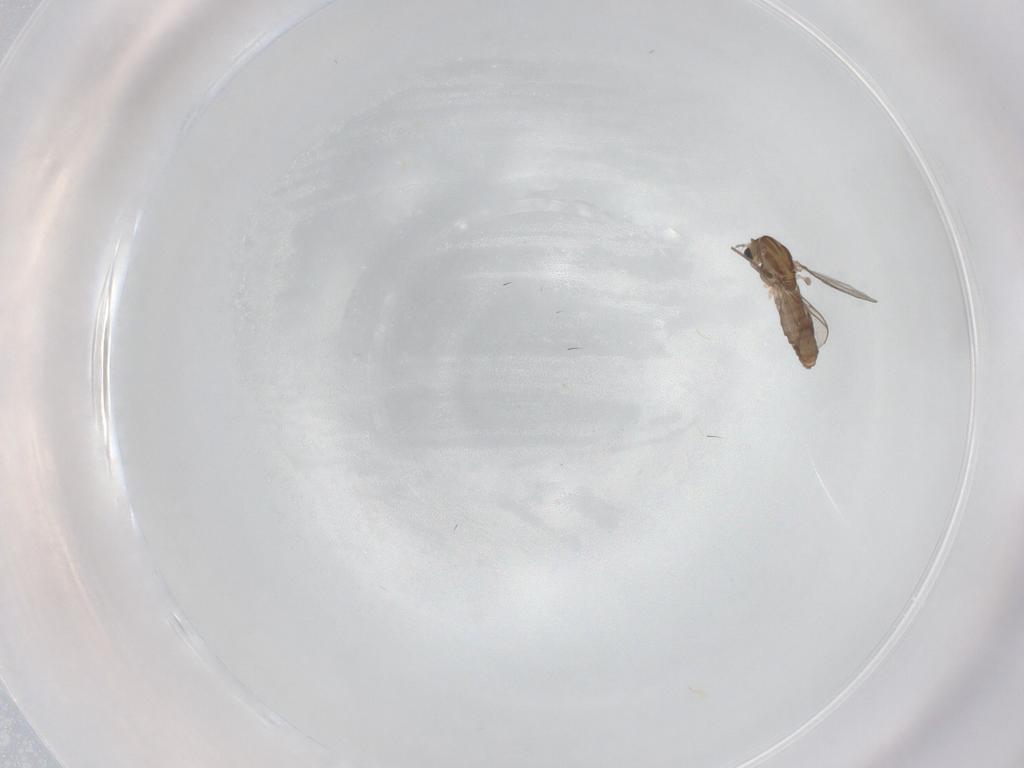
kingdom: Animalia
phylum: Arthropoda
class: Insecta
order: Diptera
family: Chironomidae
